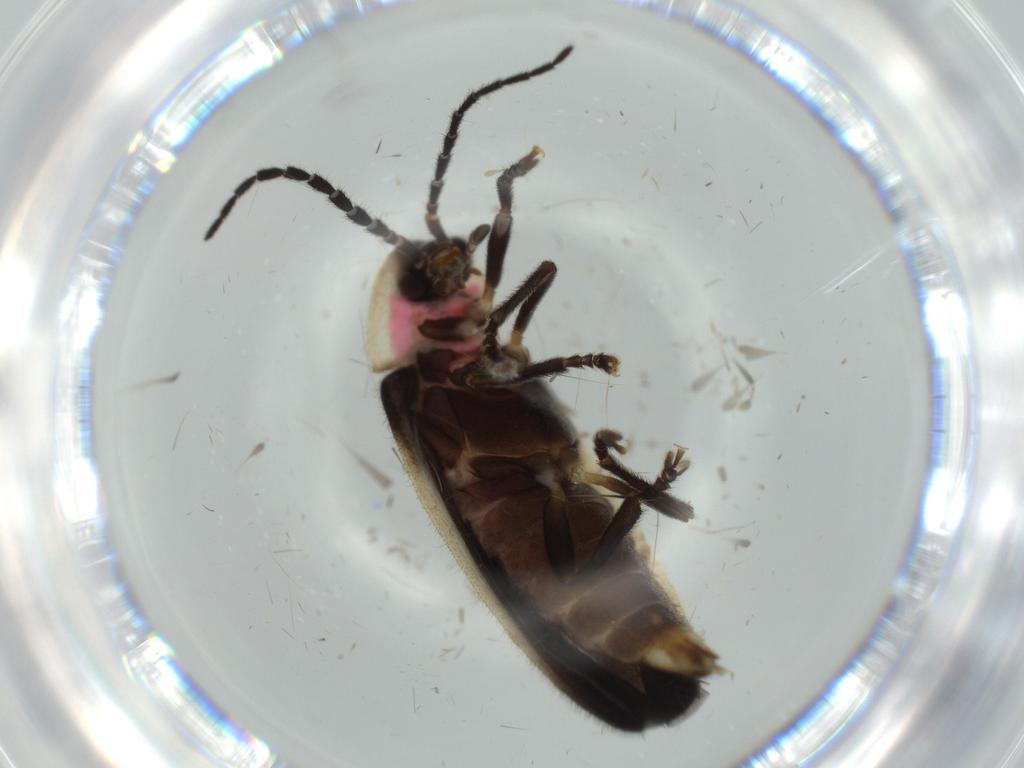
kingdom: Animalia
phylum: Arthropoda
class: Insecta
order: Coleoptera
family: Lampyridae
